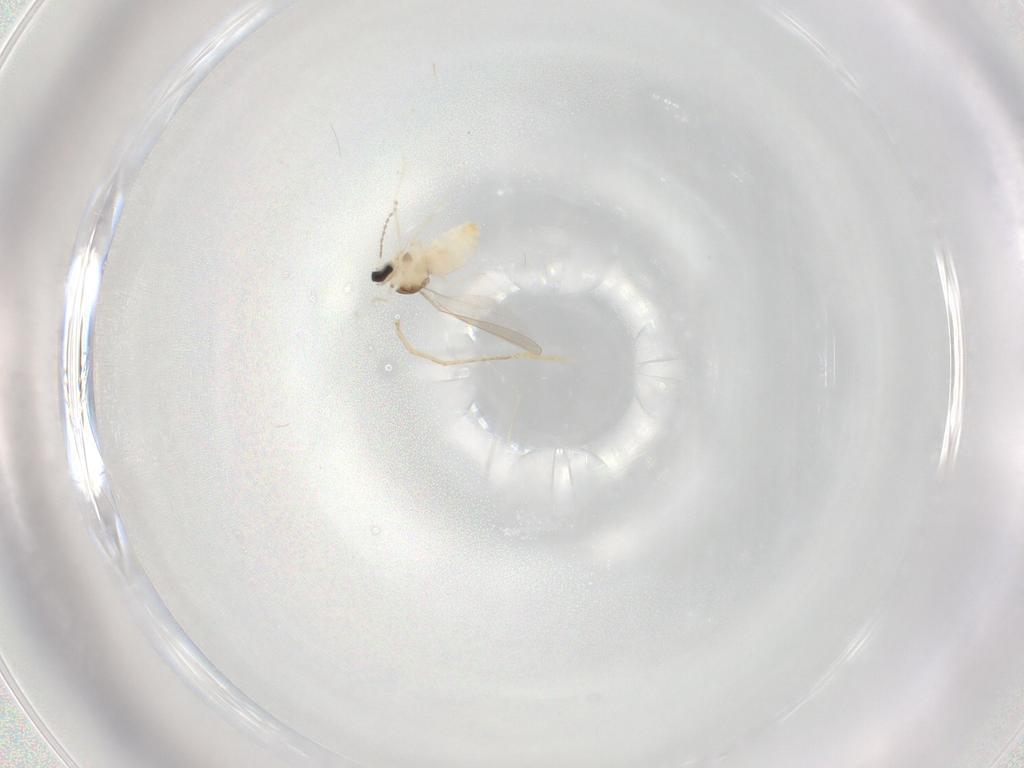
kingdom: Animalia
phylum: Arthropoda
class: Insecta
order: Diptera
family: Cecidomyiidae
